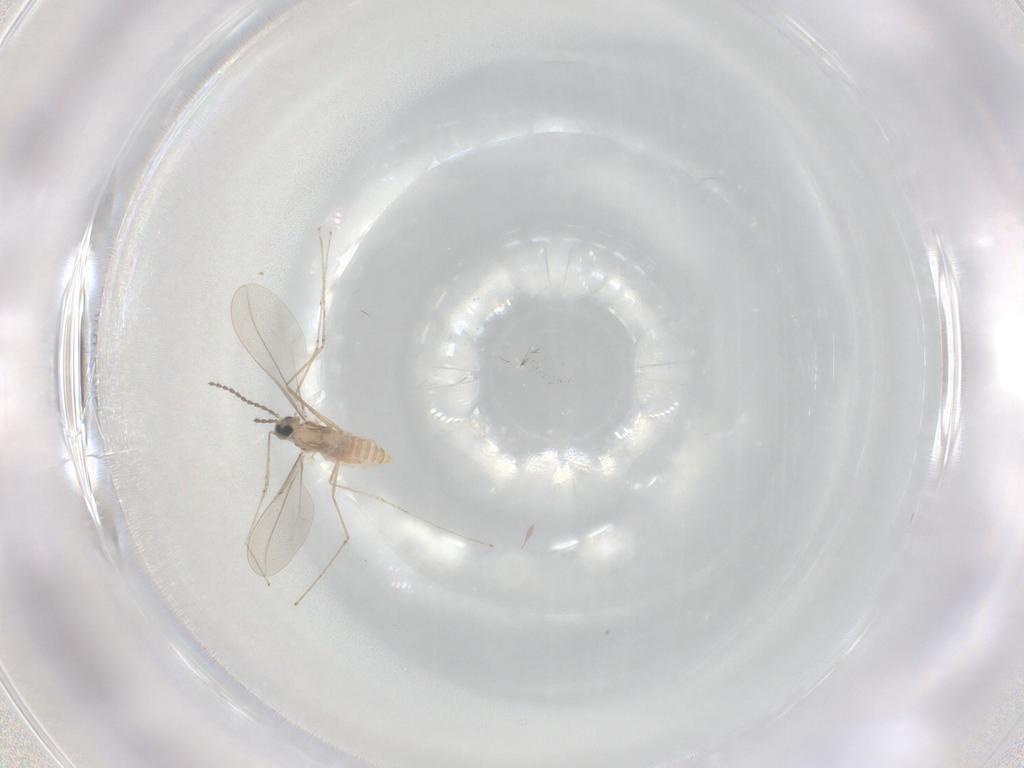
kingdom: Animalia
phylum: Arthropoda
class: Insecta
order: Diptera
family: Cecidomyiidae
